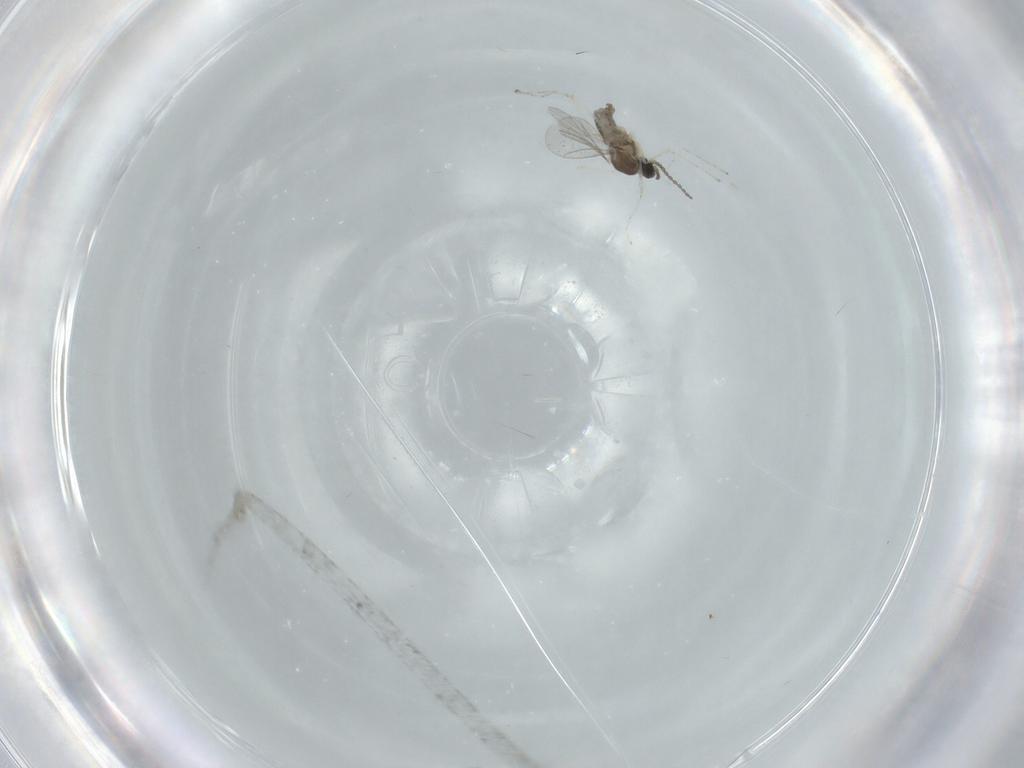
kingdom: Animalia
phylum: Arthropoda
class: Insecta
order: Diptera
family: Cecidomyiidae
